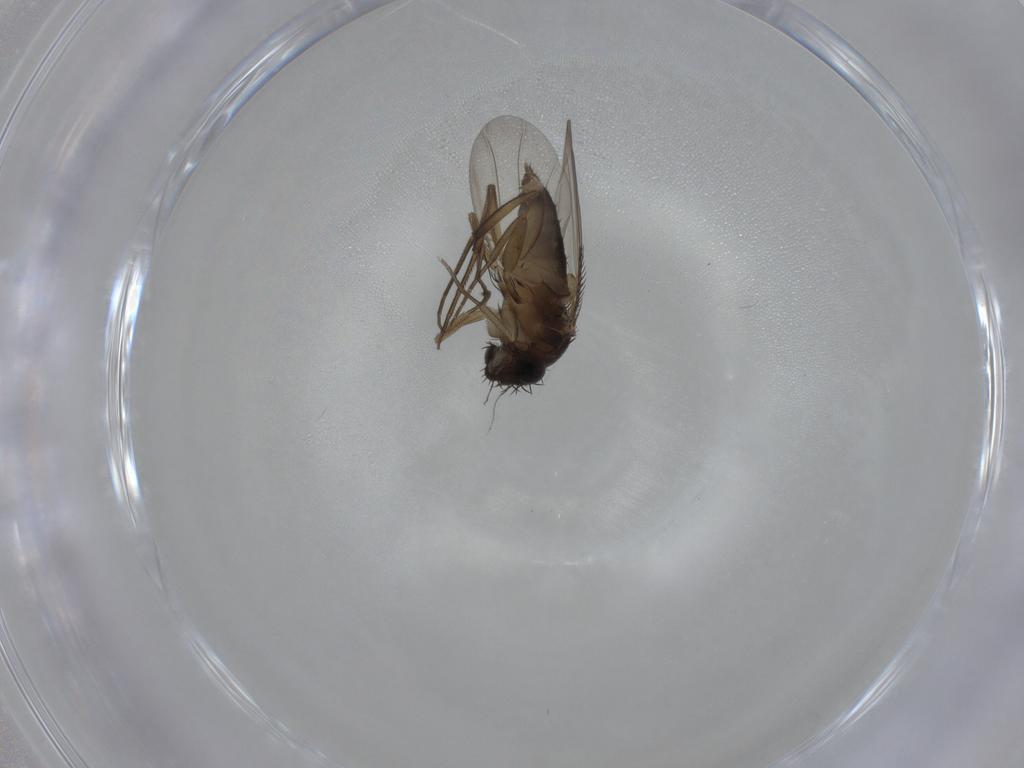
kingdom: Animalia
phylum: Arthropoda
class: Insecta
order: Diptera
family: Phoridae
